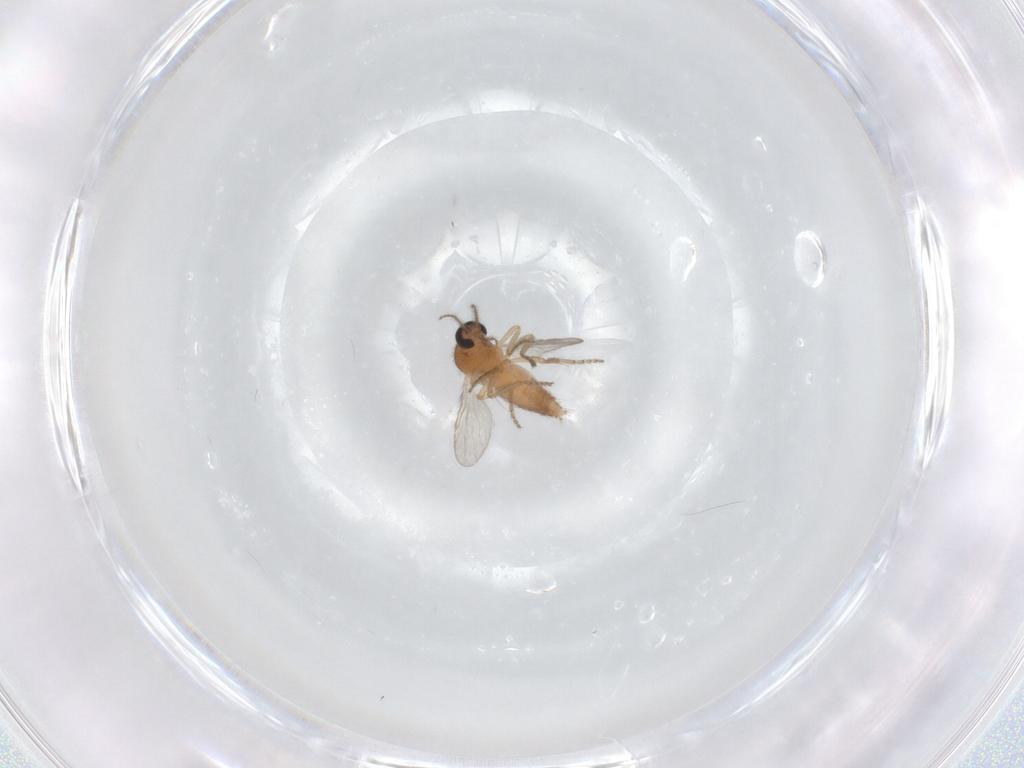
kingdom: Animalia
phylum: Arthropoda
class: Insecta
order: Diptera
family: Ceratopogonidae
